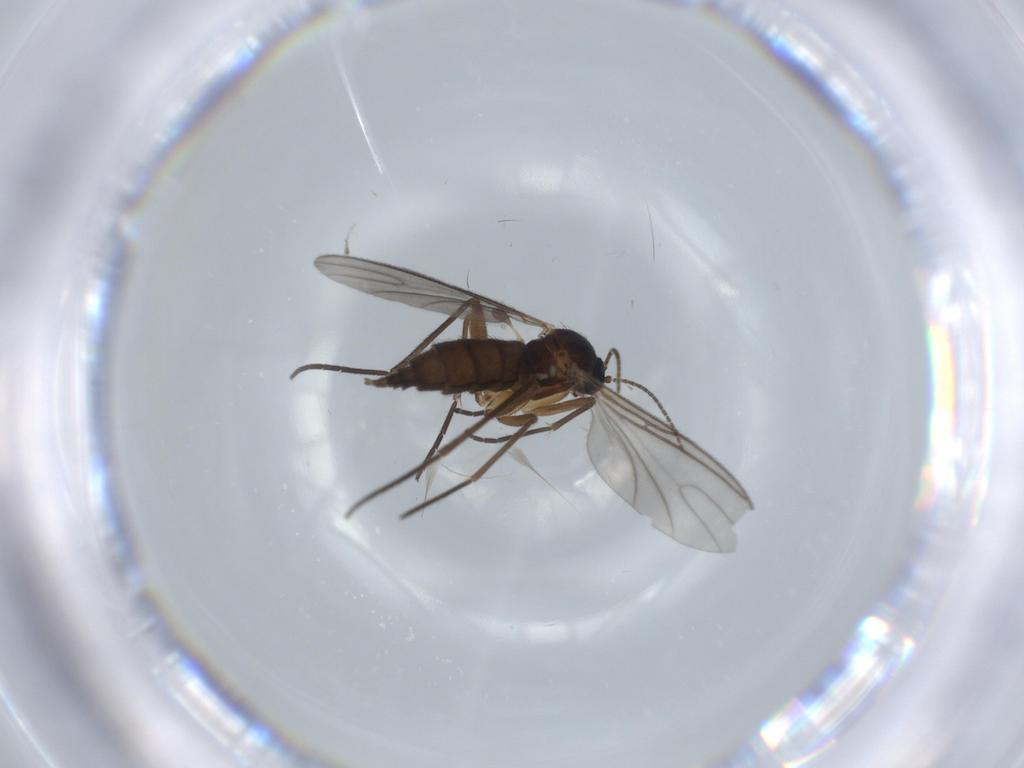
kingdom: Animalia
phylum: Arthropoda
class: Insecta
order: Diptera
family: Sciaridae
